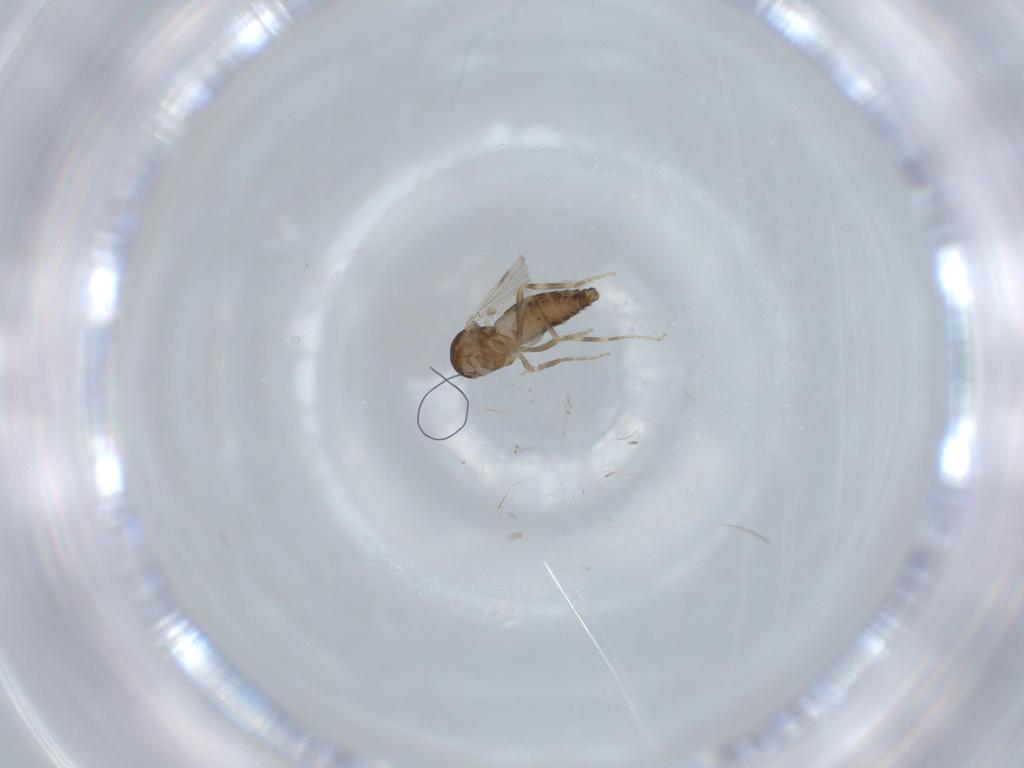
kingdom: Animalia
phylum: Arthropoda
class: Insecta
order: Diptera
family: Ceratopogonidae
